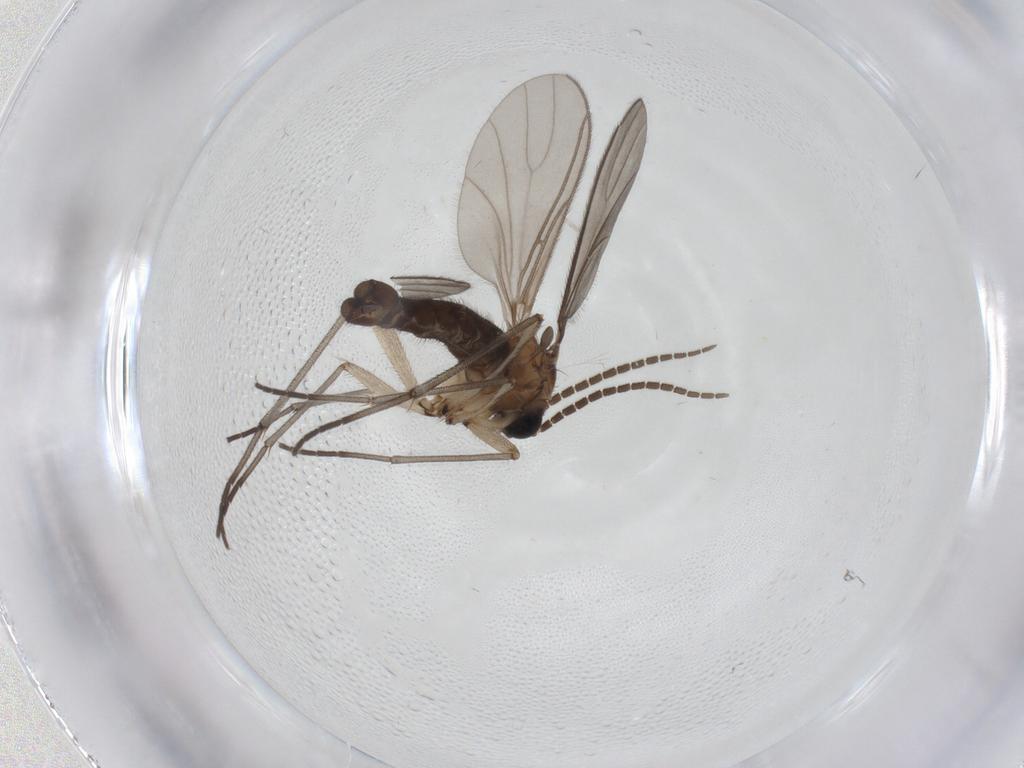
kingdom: Animalia
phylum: Arthropoda
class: Insecta
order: Diptera
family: Sciaridae
